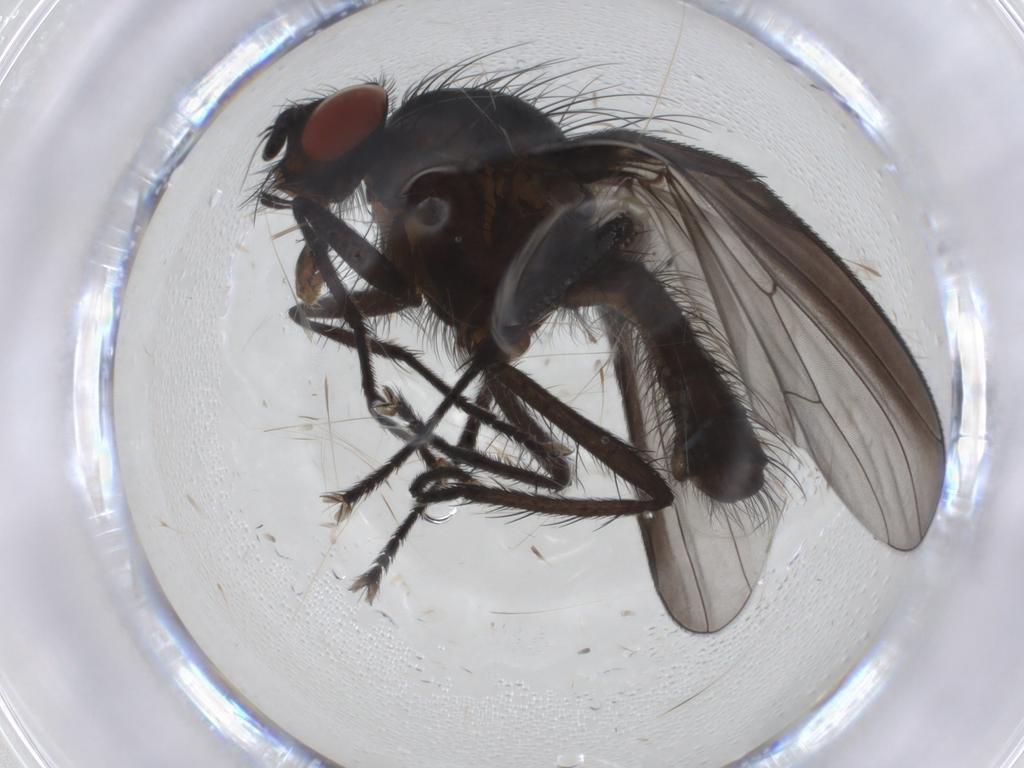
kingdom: Animalia
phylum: Arthropoda
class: Insecta
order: Diptera
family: Anthomyiidae
